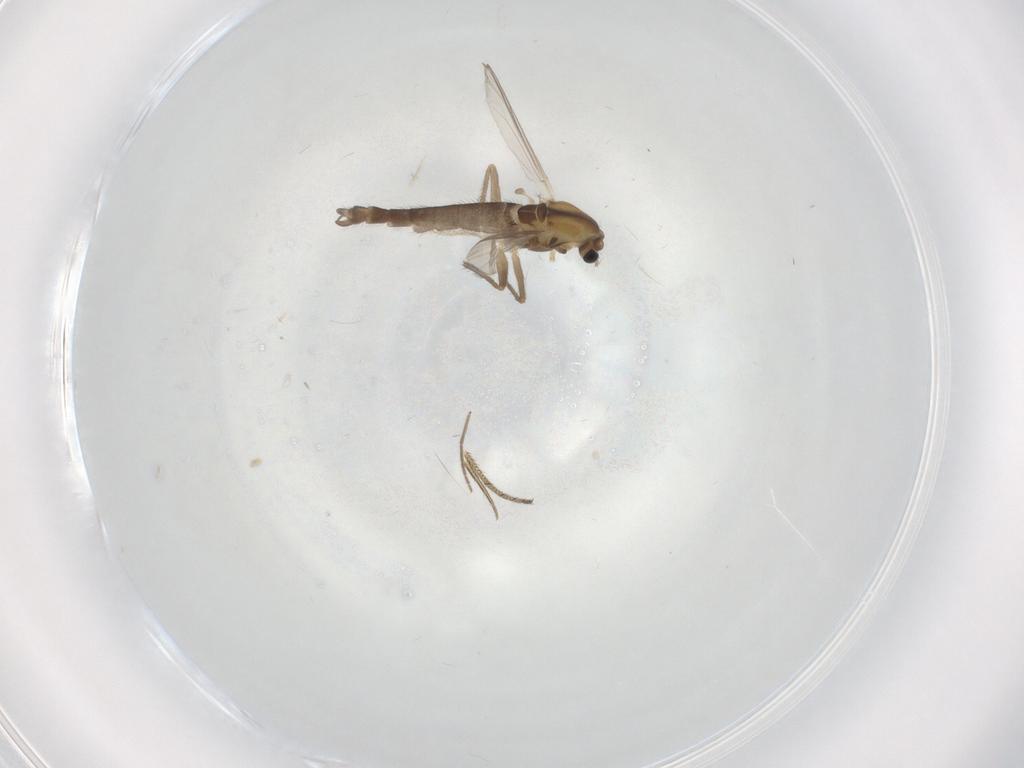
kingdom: Animalia
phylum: Arthropoda
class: Insecta
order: Diptera
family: Chironomidae
